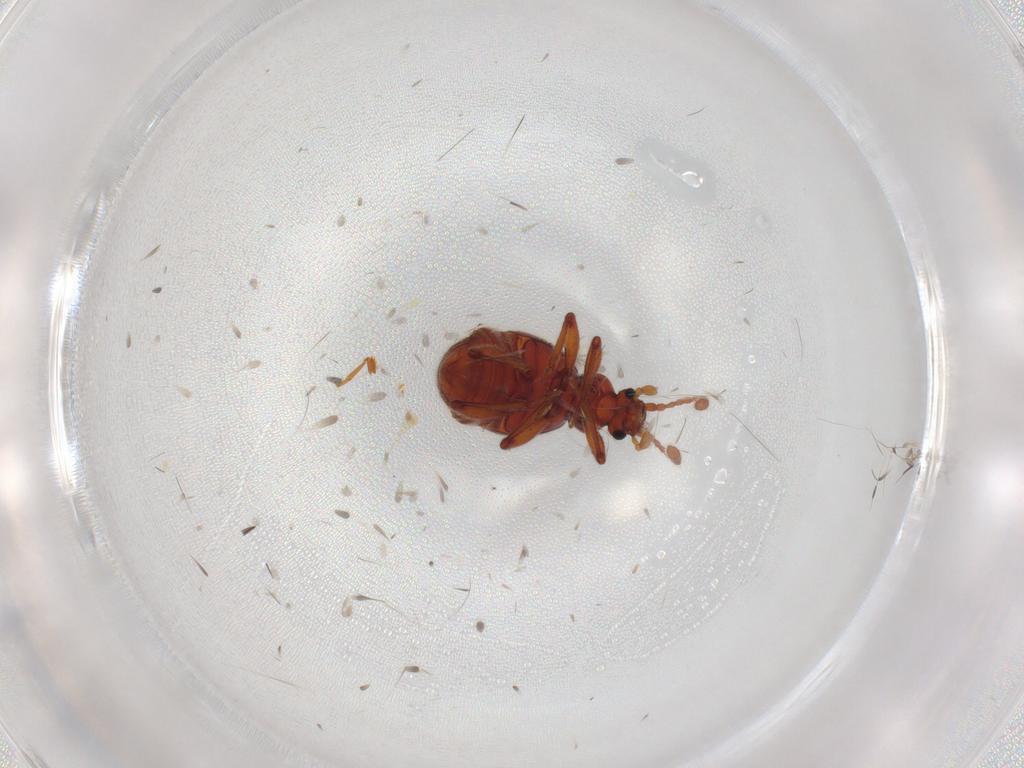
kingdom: Animalia
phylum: Arthropoda
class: Insecta
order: Coleoptera
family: Staphylinidae
